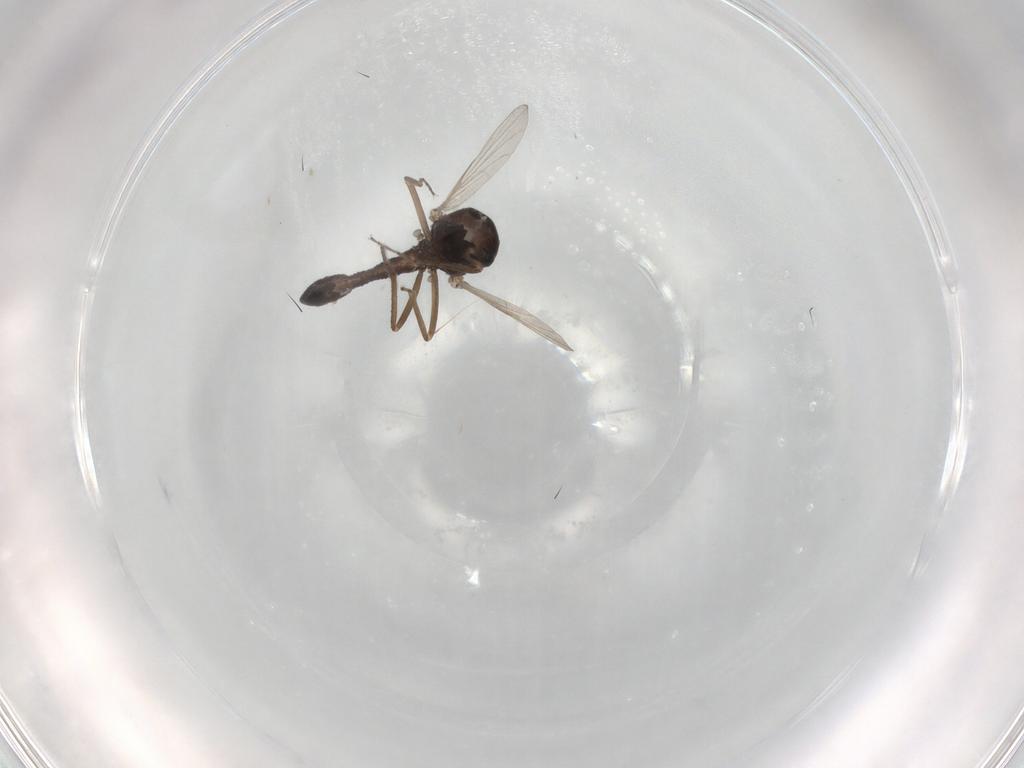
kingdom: Animalia
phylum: Arthropoda
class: Insecta
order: Diptera
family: Ceratopogonidae
